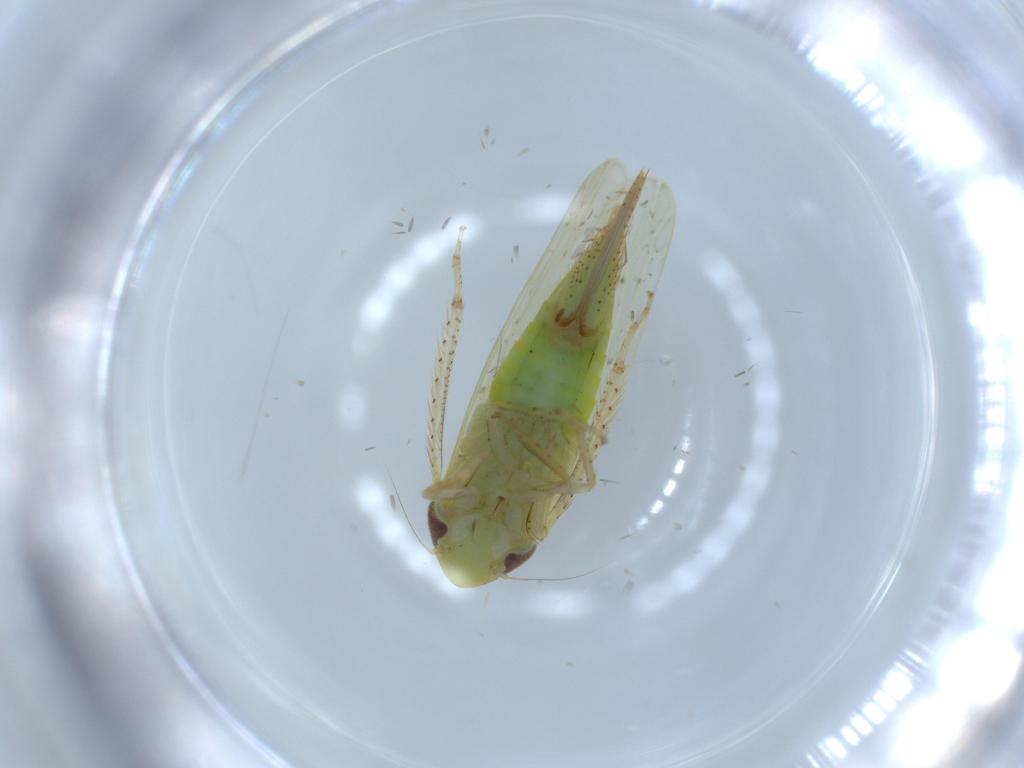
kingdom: Animalia
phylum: Arthropoda
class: Insecta
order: Hemiptera
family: Cicadellidae
